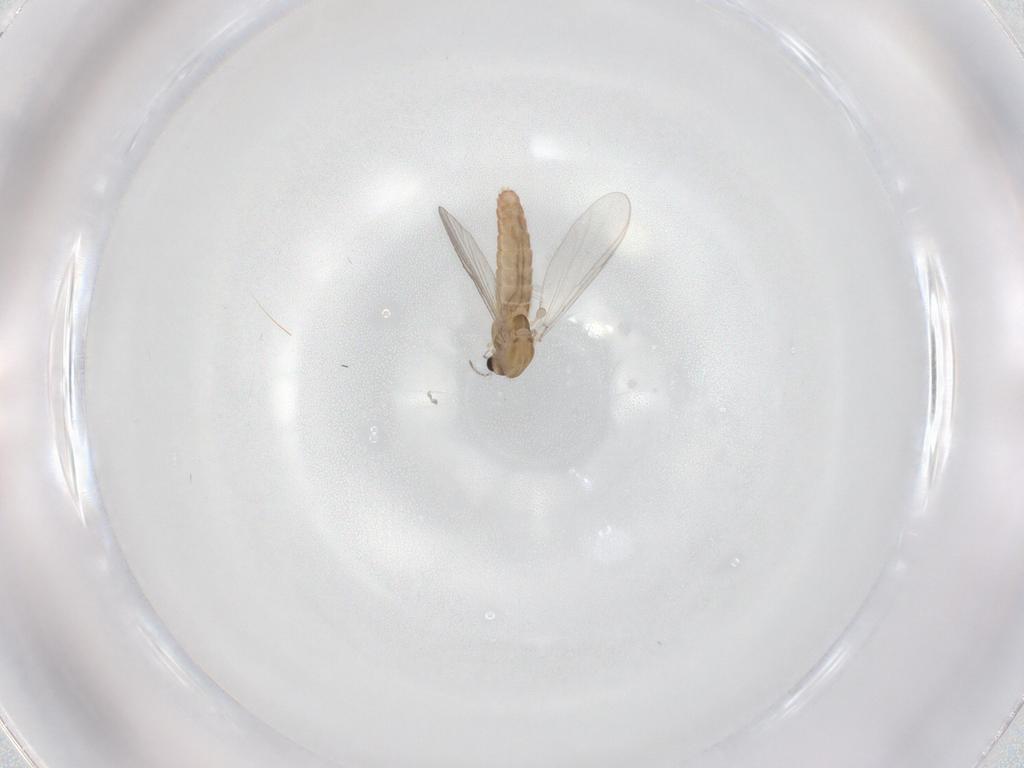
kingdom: Animalia
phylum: Arthropoda
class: Insecta
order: Diptera
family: Chironomidae
